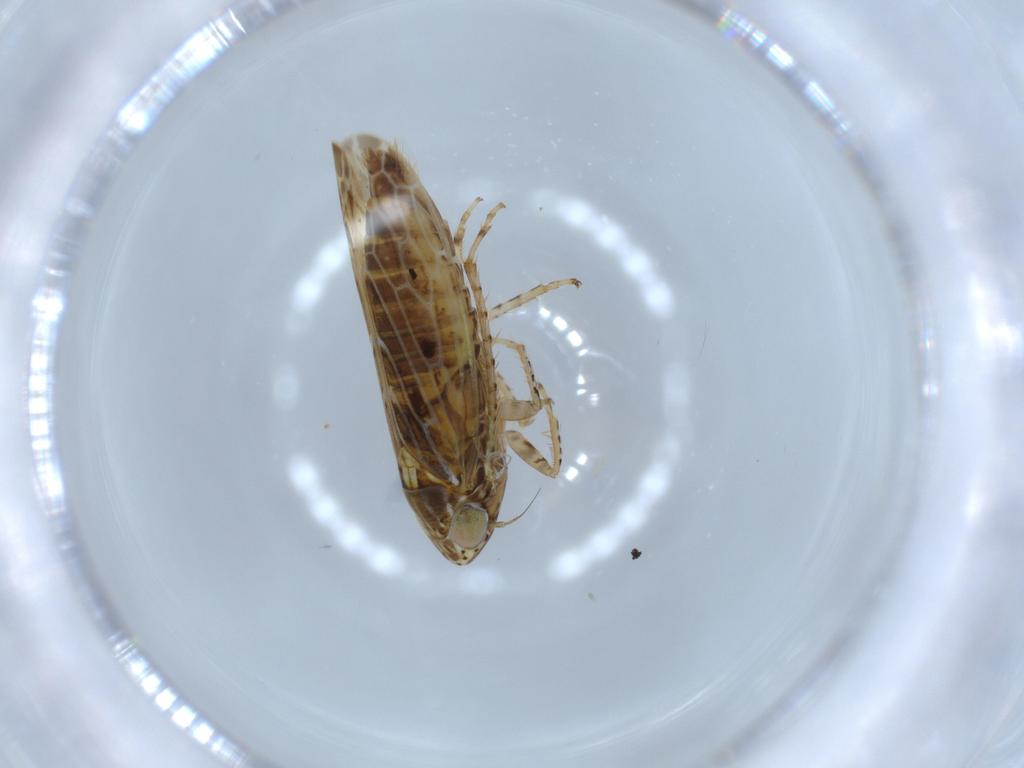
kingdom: Animalia
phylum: Arthropoda
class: Insecta
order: Hemiptera
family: Cicadellidae
